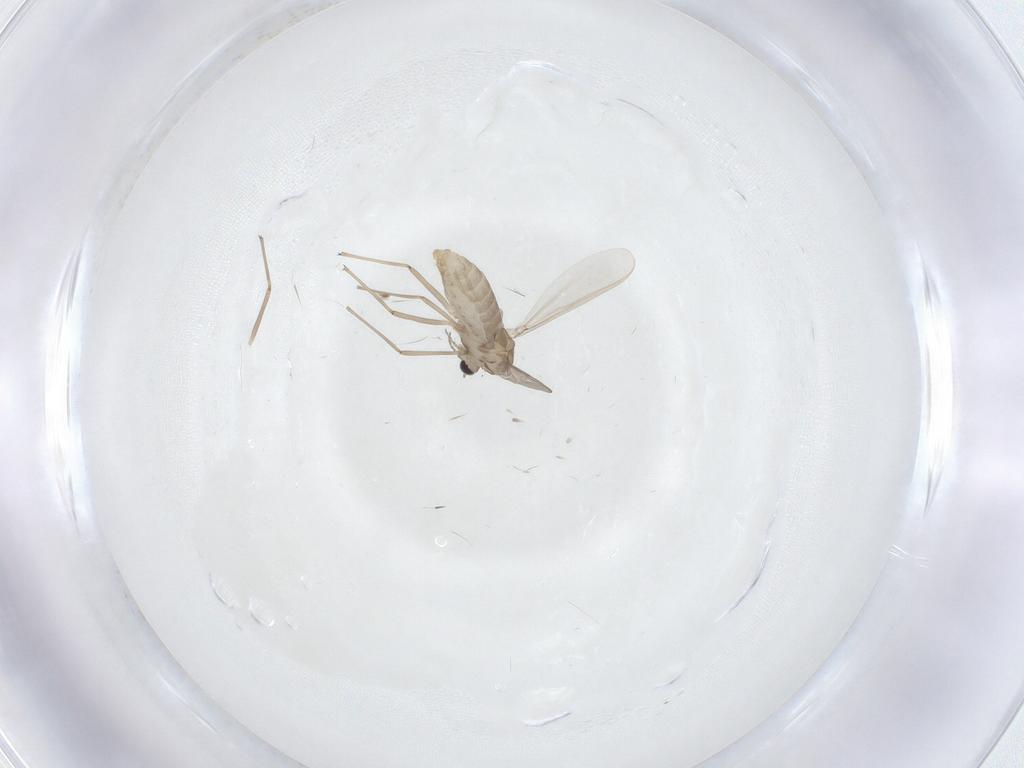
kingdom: Animalia
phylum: Arthropoda
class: Insecta
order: Diptera
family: Chironomidae
